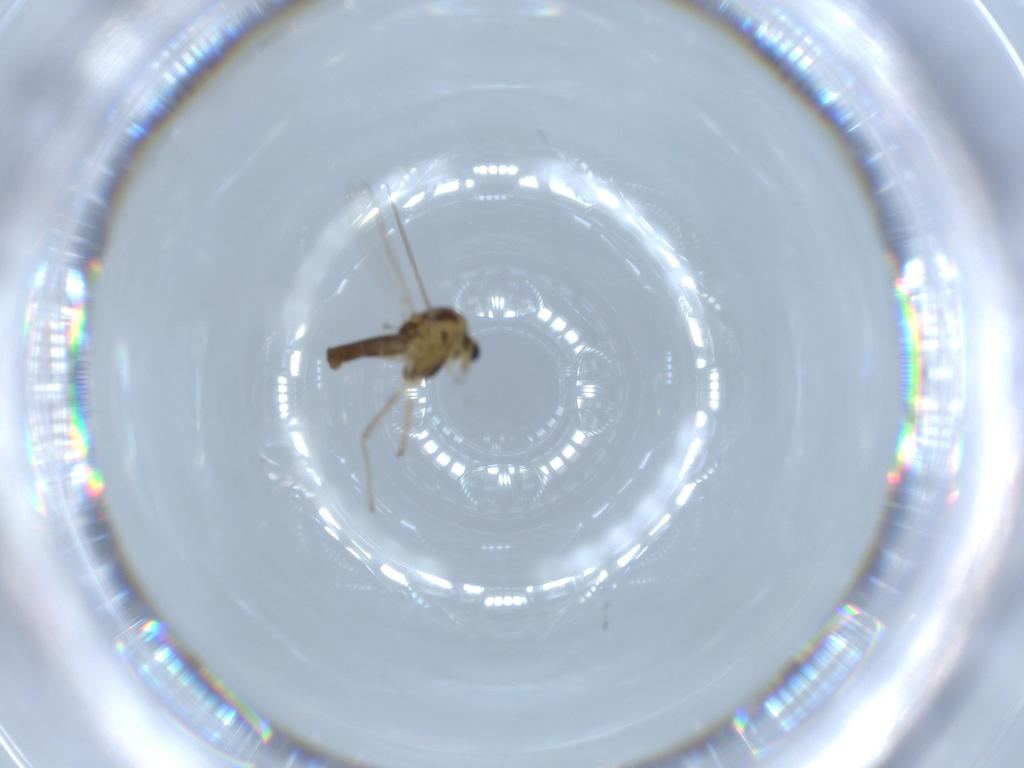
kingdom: Animalia
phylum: Arthropoda
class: Insecta
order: Diptera
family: Chironomidae
